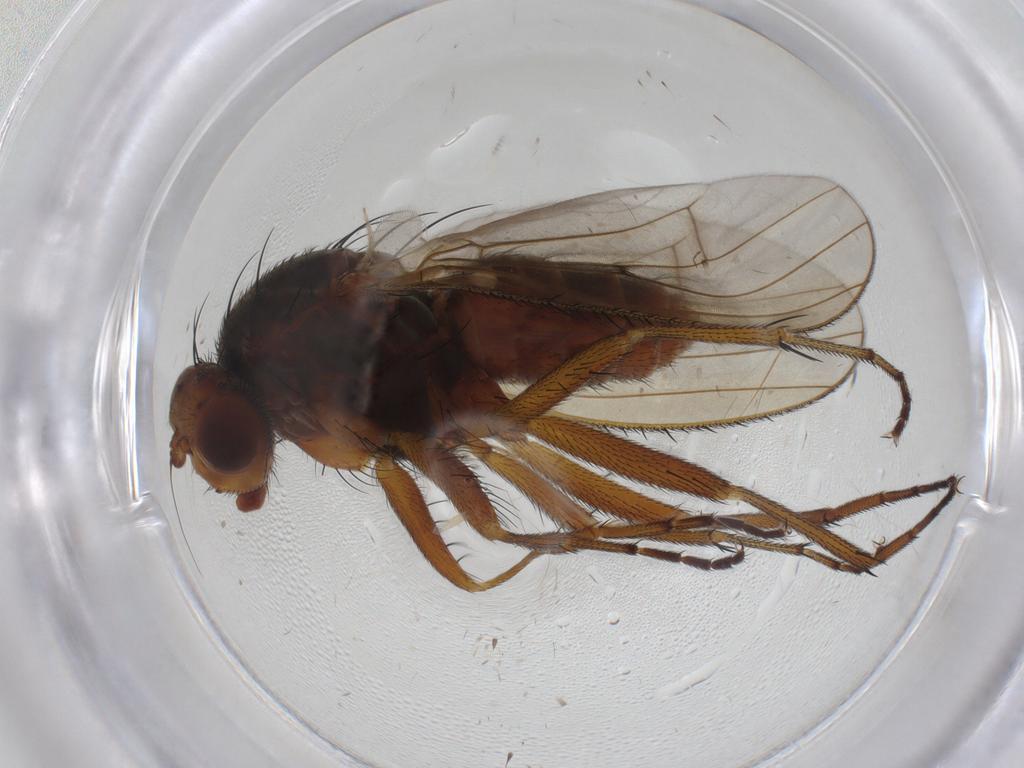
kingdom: Animalia
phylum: Arthropoda
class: Insecta
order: Diptera
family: Heleomyzidae
